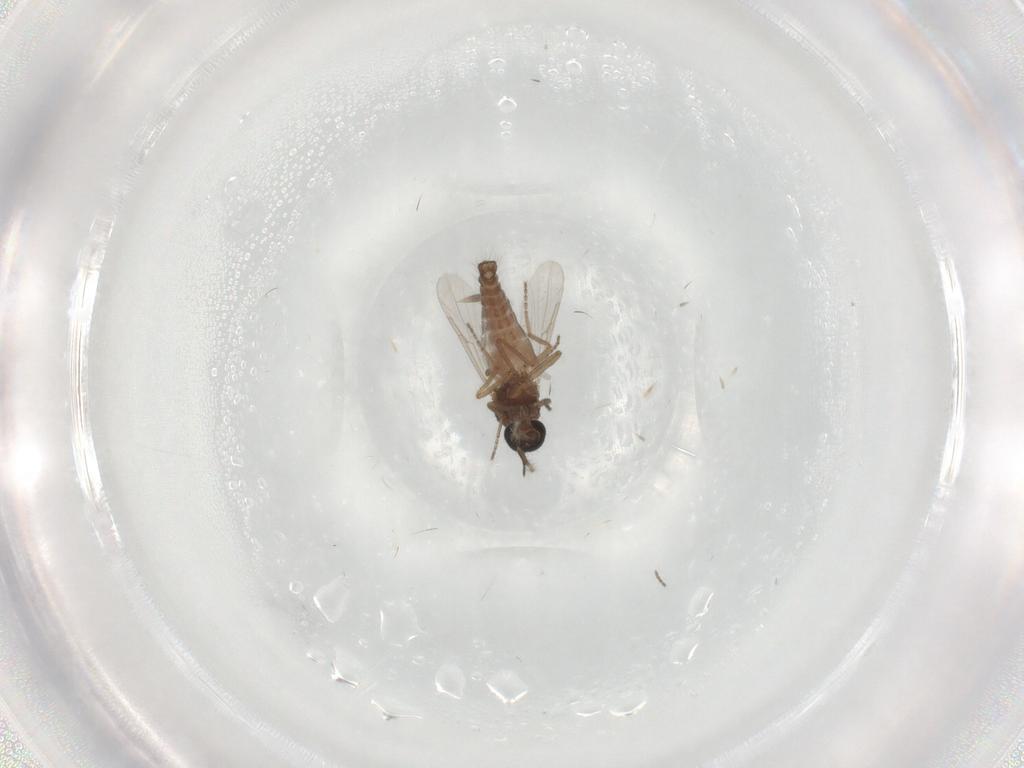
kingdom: Animalia
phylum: Arthropoda
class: Insecta
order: Diptera
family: Ceratopogonidae
